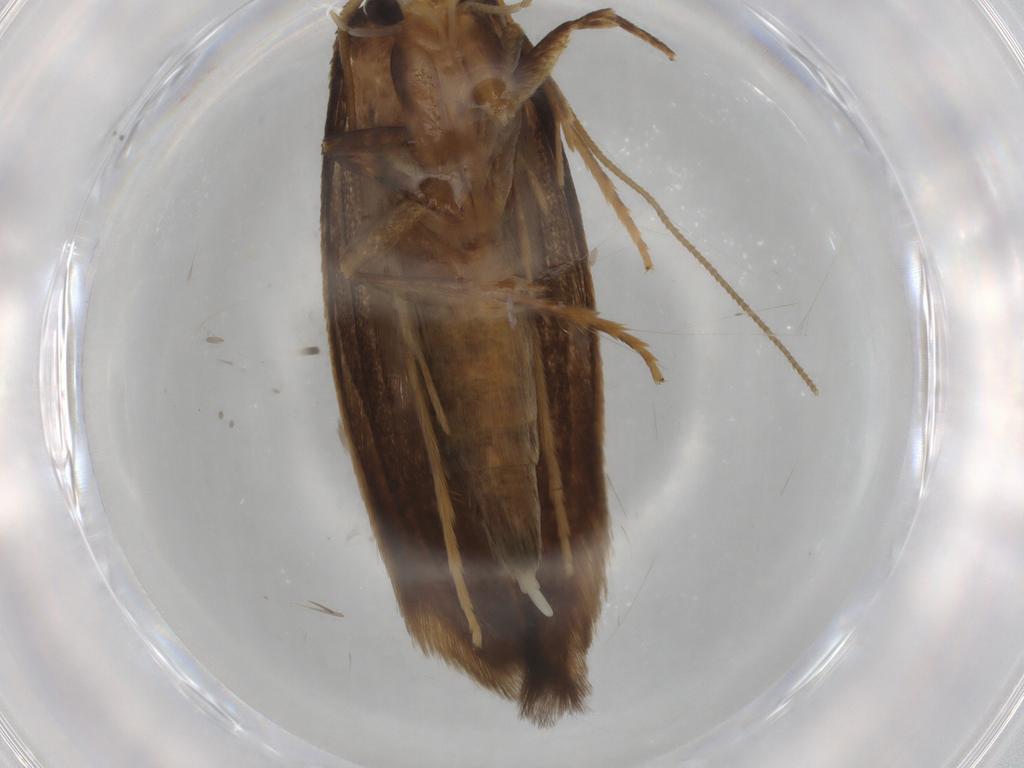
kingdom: Animalia
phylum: Arthropoda
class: Insecta
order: Lepidoptera
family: Tineidae
